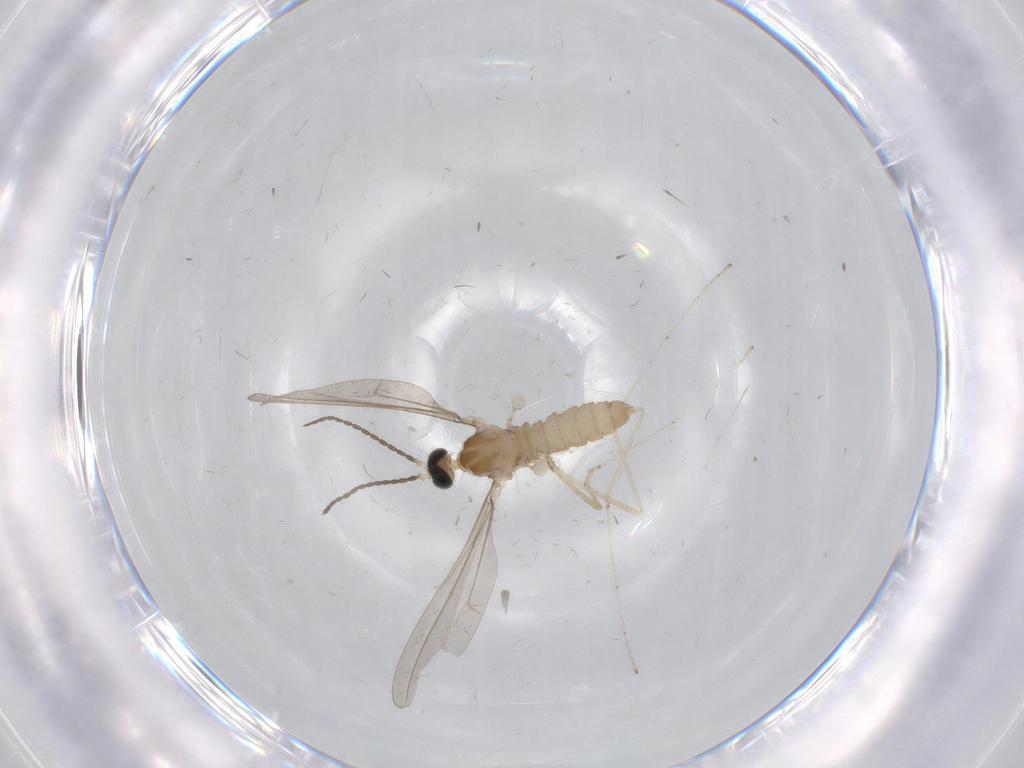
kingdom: Animalia
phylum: Arthropoda
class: Insecta
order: Diptera
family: Cecidomyiidae
